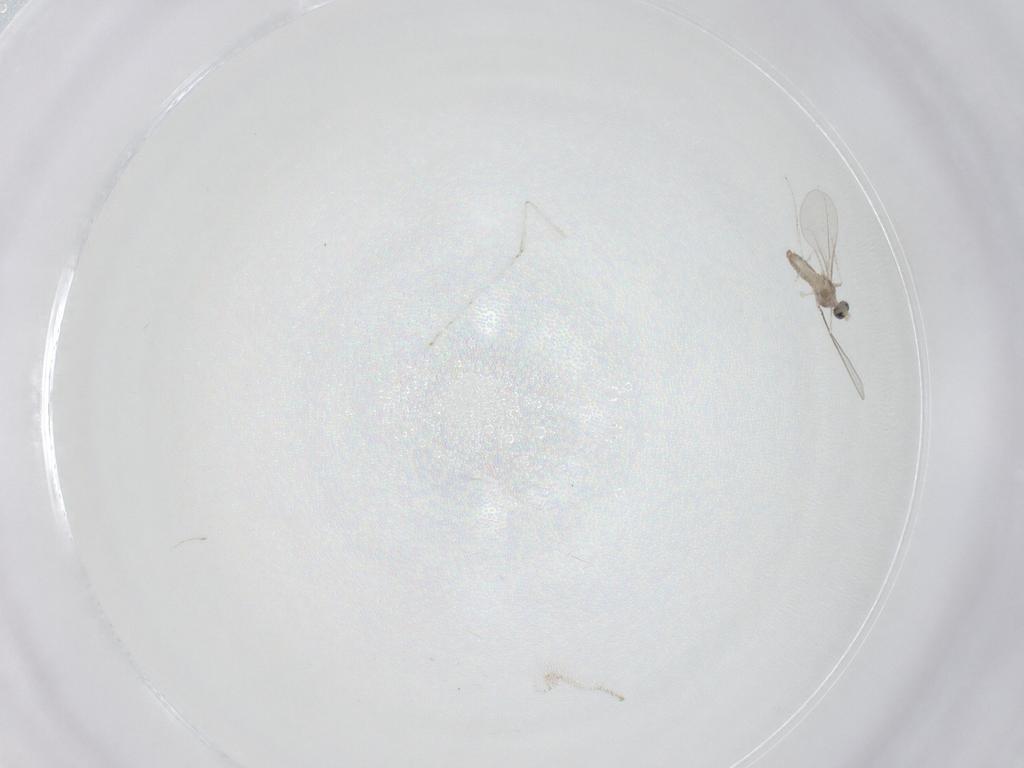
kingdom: Animalia
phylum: Arthropoda
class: Insecta
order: Diptera
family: Cecidomyiidae
